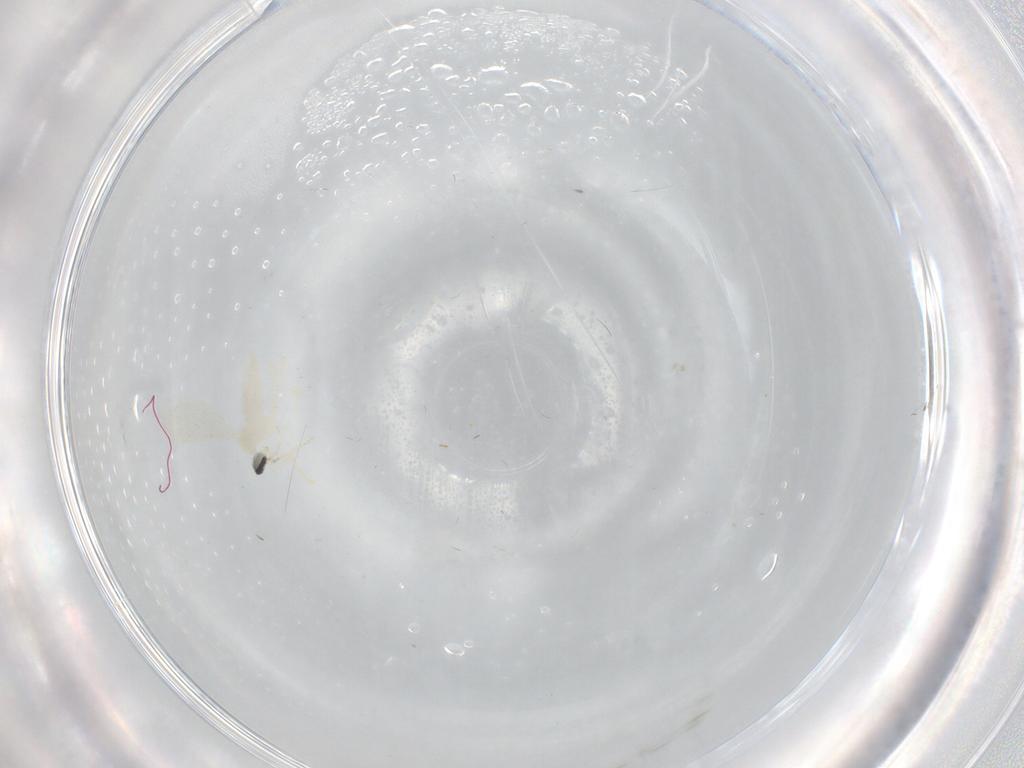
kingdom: Animalia
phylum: Arthropoda
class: Insecta
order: Diptera
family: Cecidomyiidae
